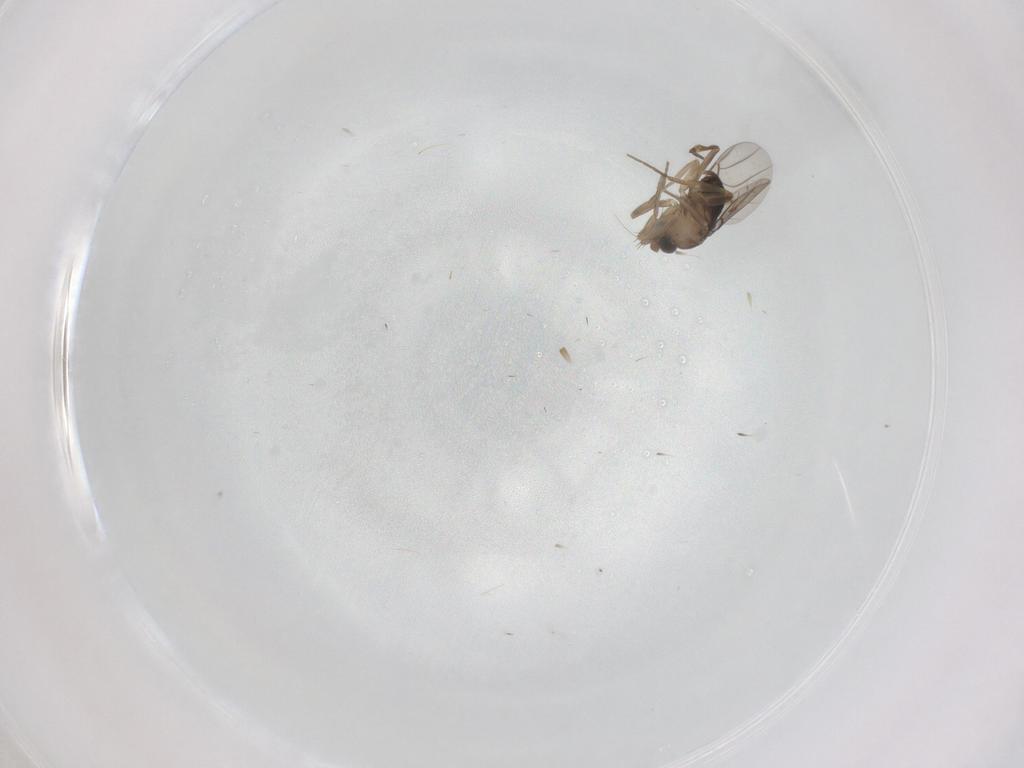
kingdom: Animalia
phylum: Arthropoda
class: Insecta
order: Diptera
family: Phoridae
